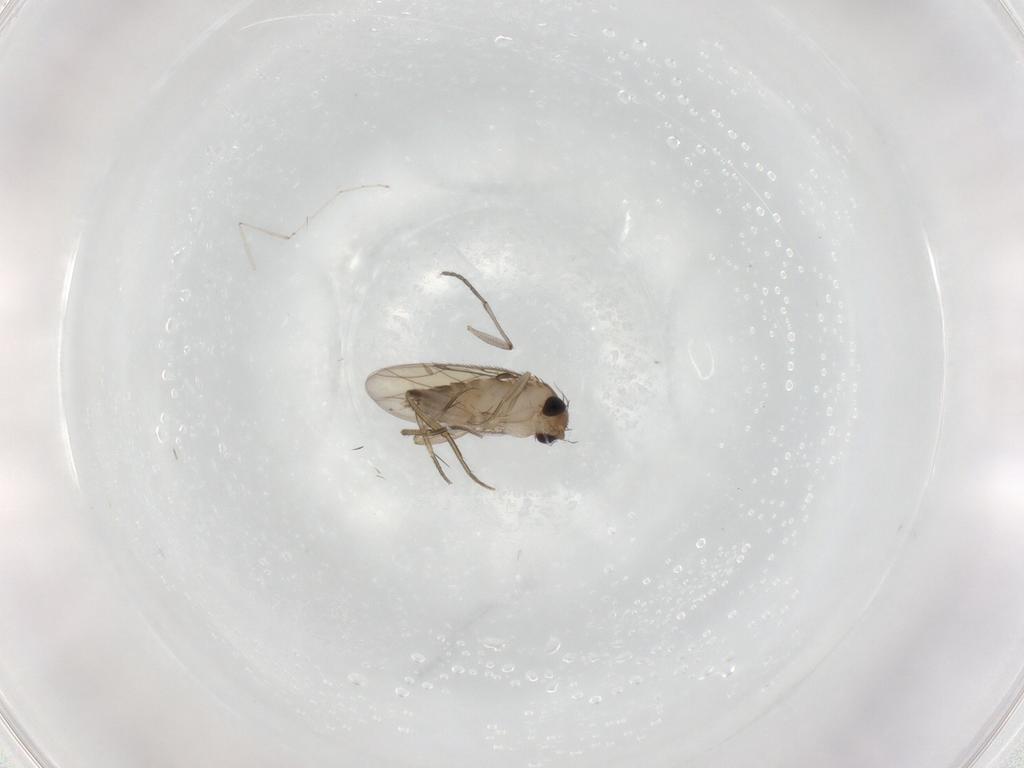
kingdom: Animalia
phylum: Arthropoda
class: Insecta
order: Diptera
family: Sciaridae
